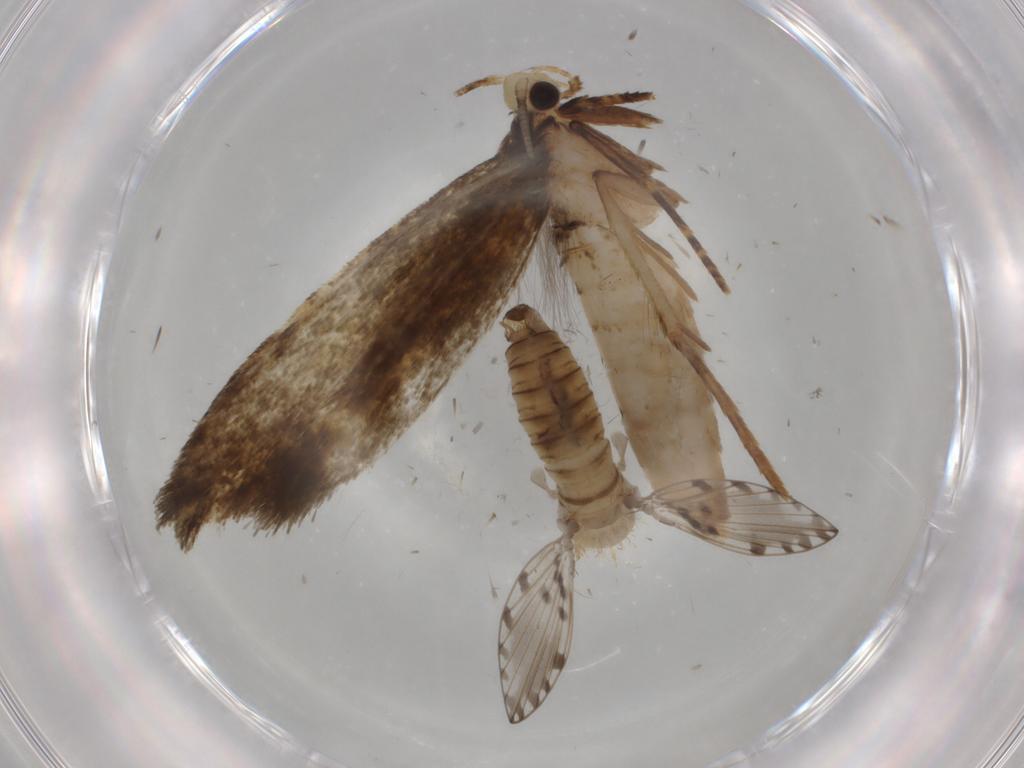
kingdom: Animalia
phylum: Arthropoda
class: Insecta
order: Diptera
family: Psychodidae
